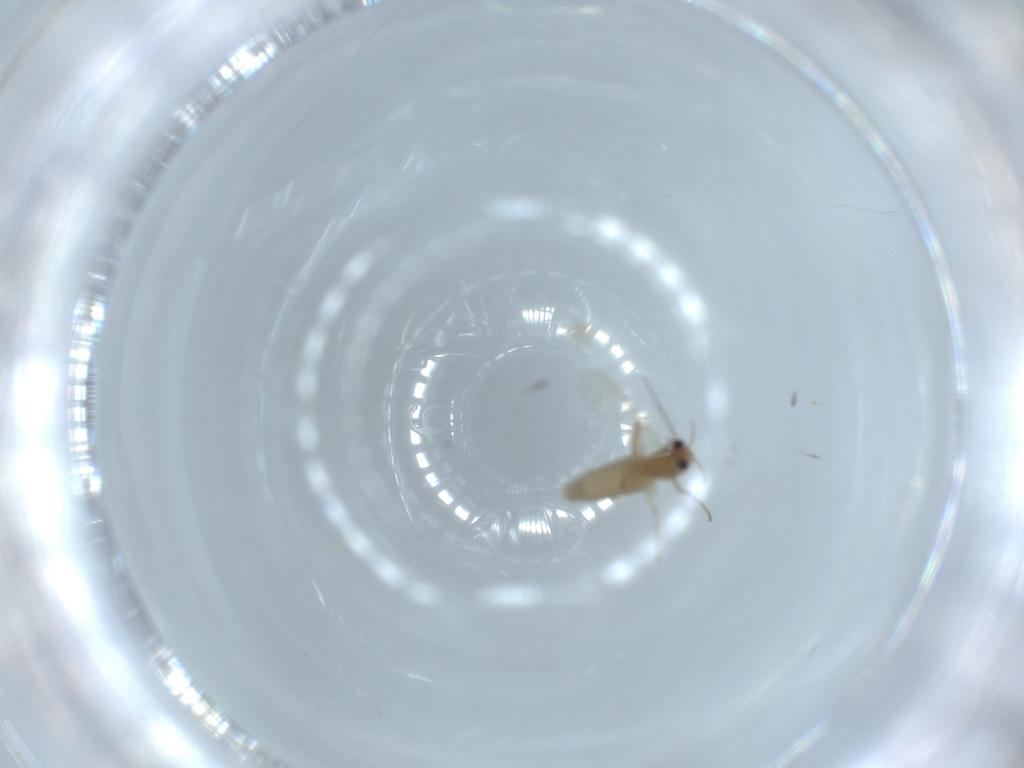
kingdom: Animalia
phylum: Arthropoda
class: Insecta
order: Diptera
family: Chironomidae
